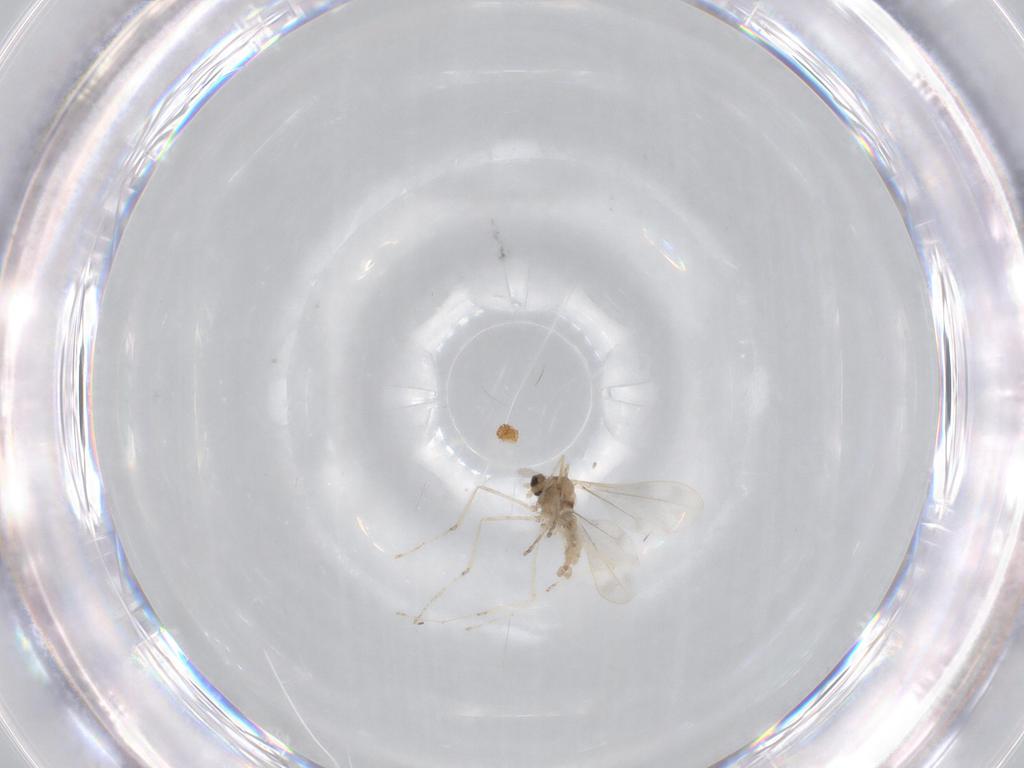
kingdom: Animalia
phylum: Arthropoda
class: Insecta
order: Diptera
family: Cecidomyiidae
